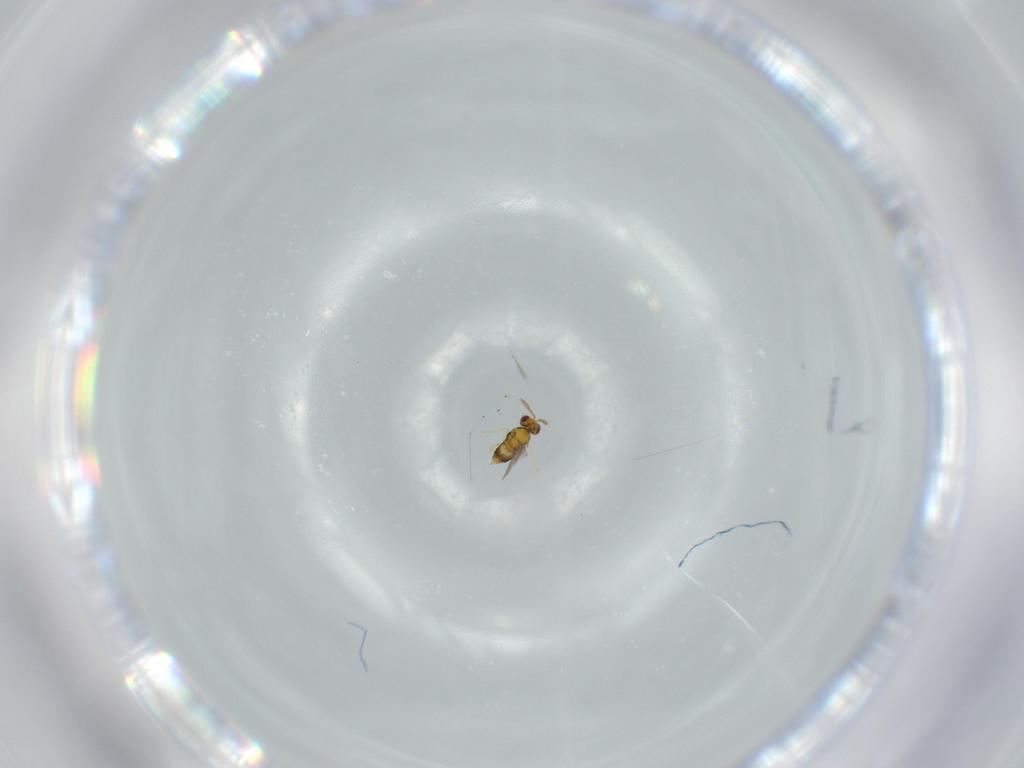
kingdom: Animalia
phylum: Arthropoda
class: Insecta
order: Hymenoptera
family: Aphelinidae
